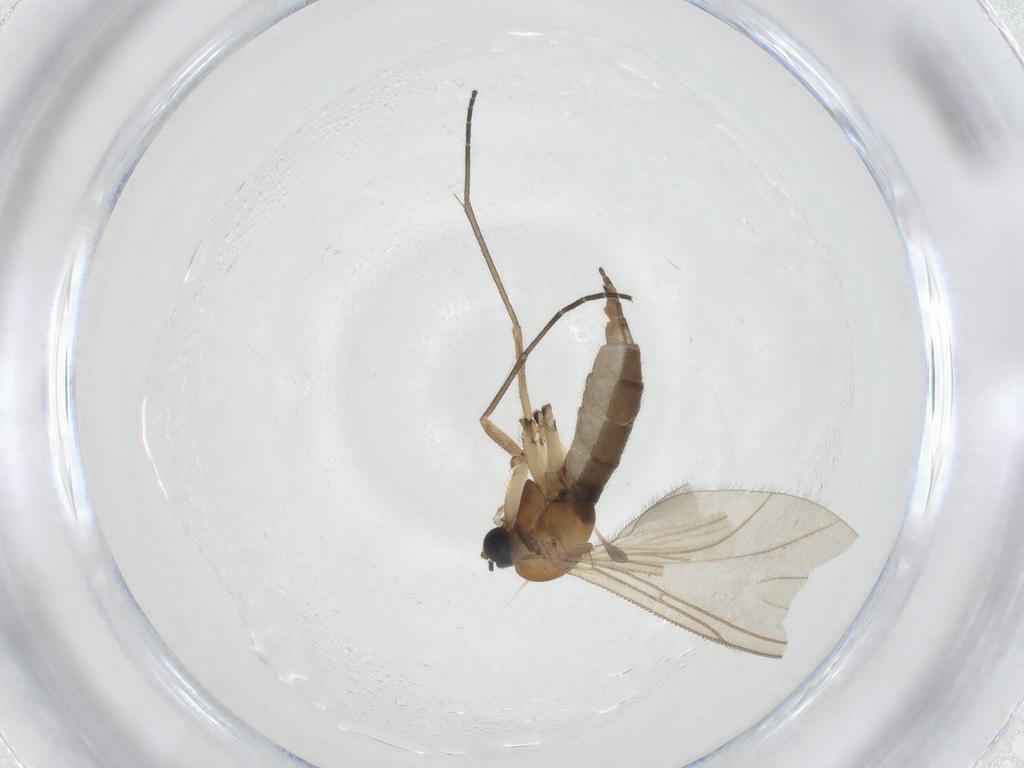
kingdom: Animalia
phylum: Arthropoda
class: Insecta
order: Diptera
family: Sciaridae
